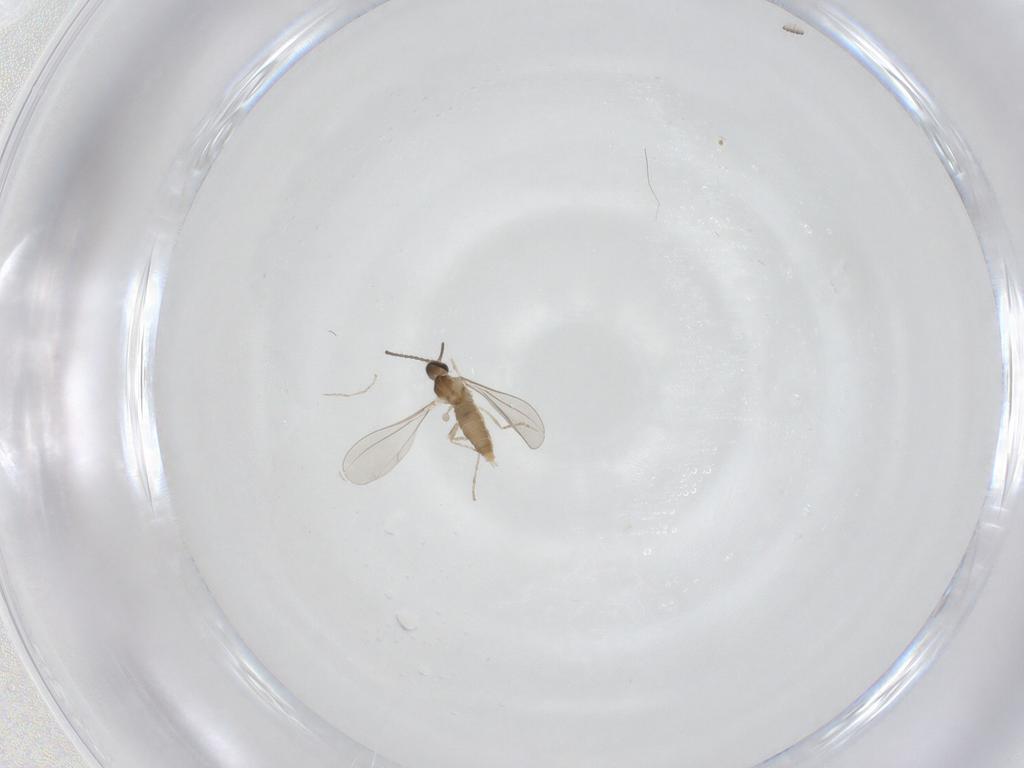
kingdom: Animalia
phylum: Arthropoda
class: Insecta
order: Diptera
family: Cecidomyiidae
